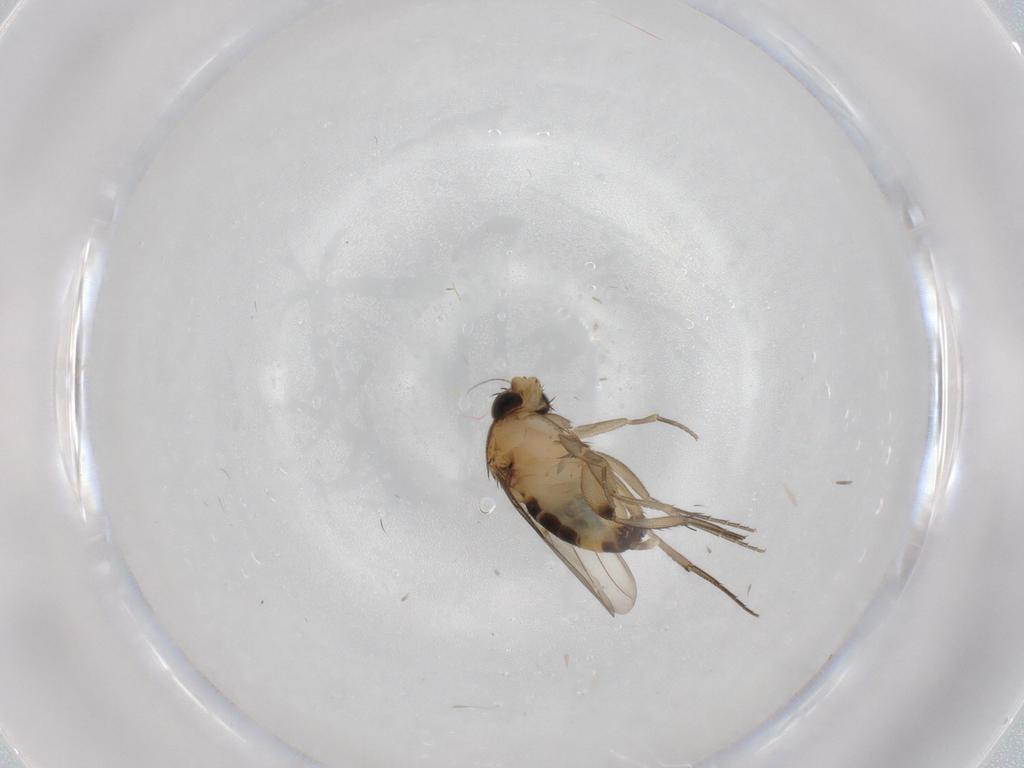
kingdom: Animalia
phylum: Arthropoda
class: Insecta
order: Diptera
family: Phoridae
